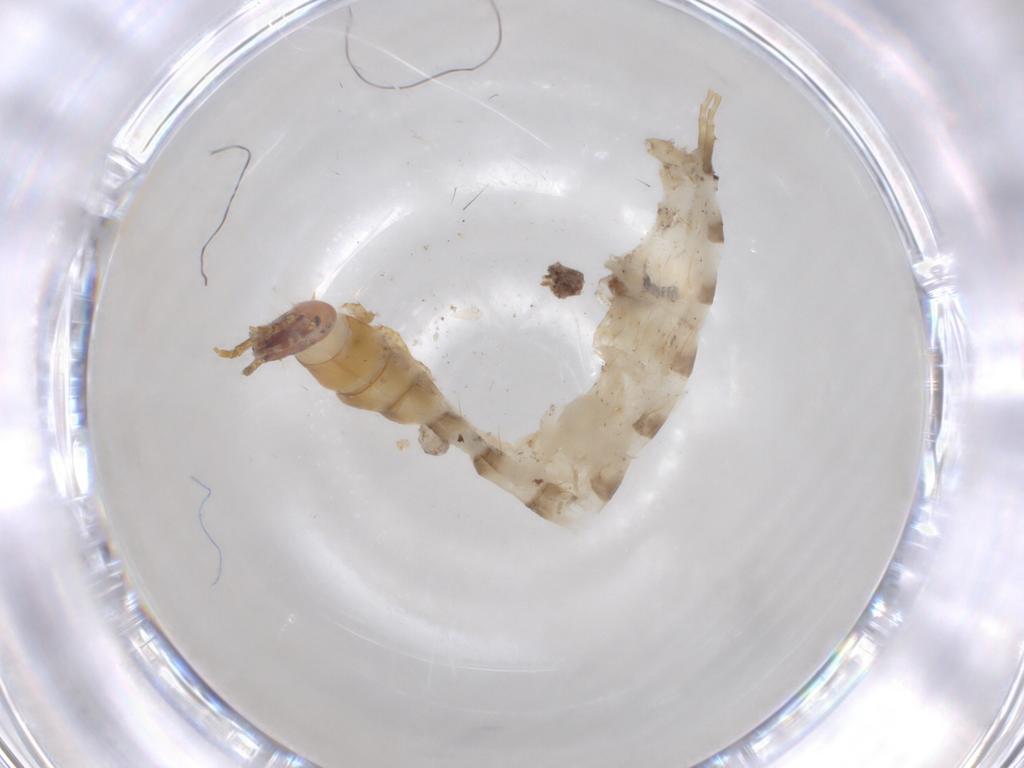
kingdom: Animalia
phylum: Arthropoda
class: Insecta
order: Coleoptera
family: Carabidae
